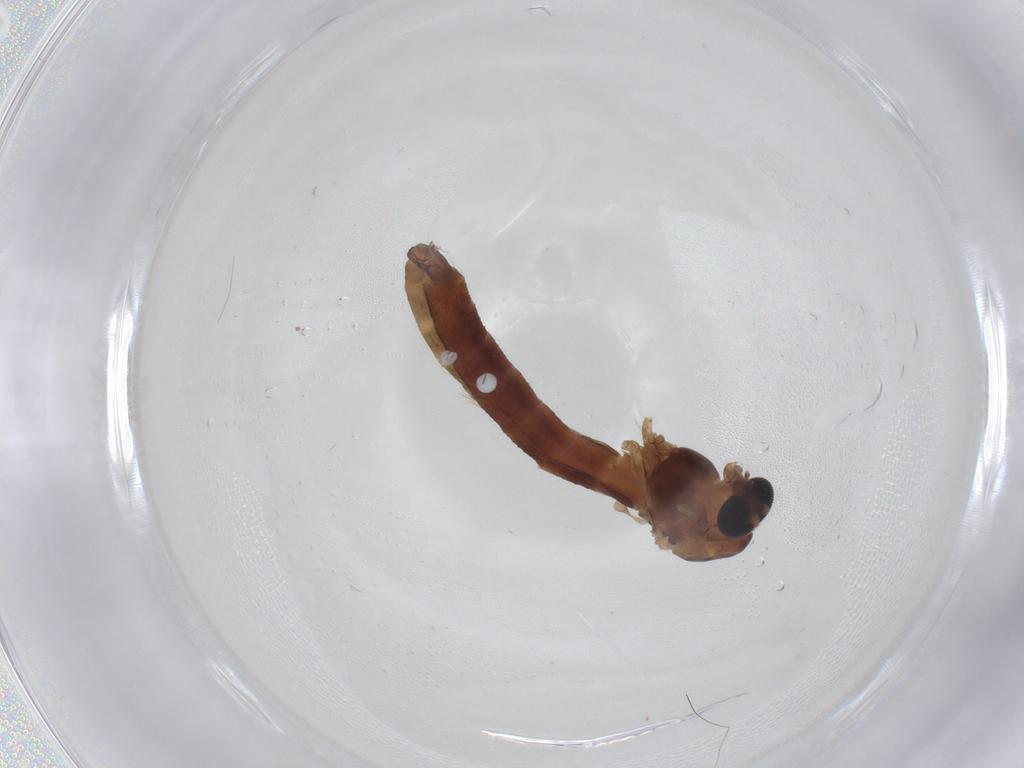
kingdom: Animalia
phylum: Arthropoda
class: Insecta
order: Diptera
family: Chironomidae
